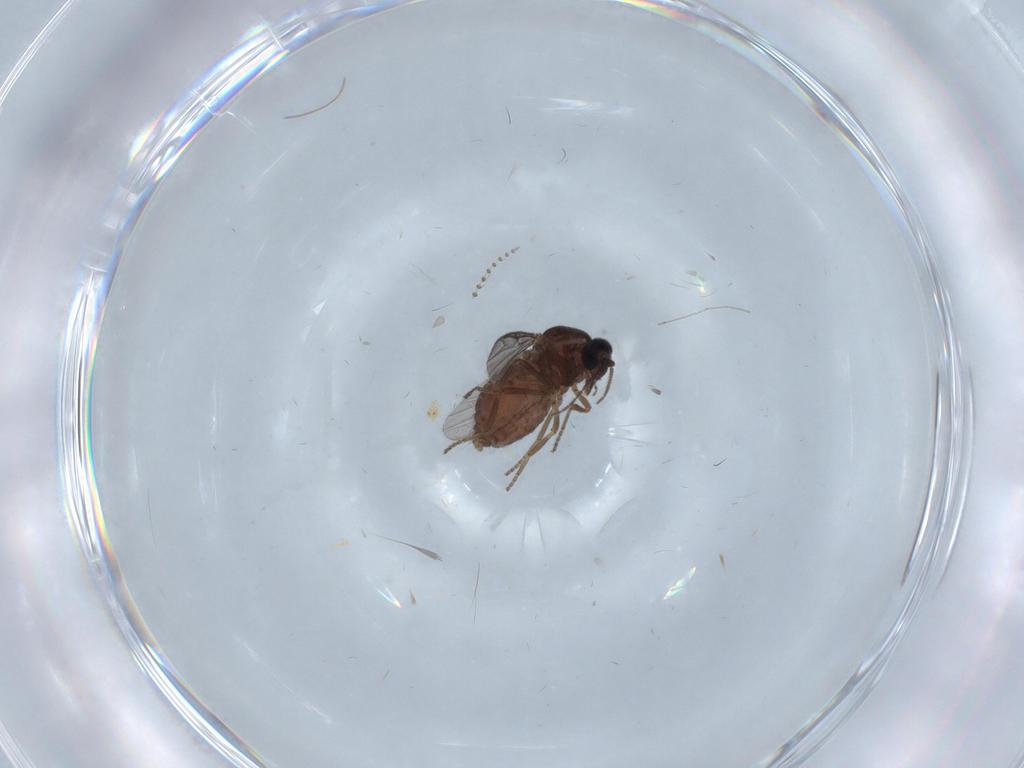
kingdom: Animalia
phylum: Arthropoda
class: Insecta
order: Diptera
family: Ceratopogonidae
